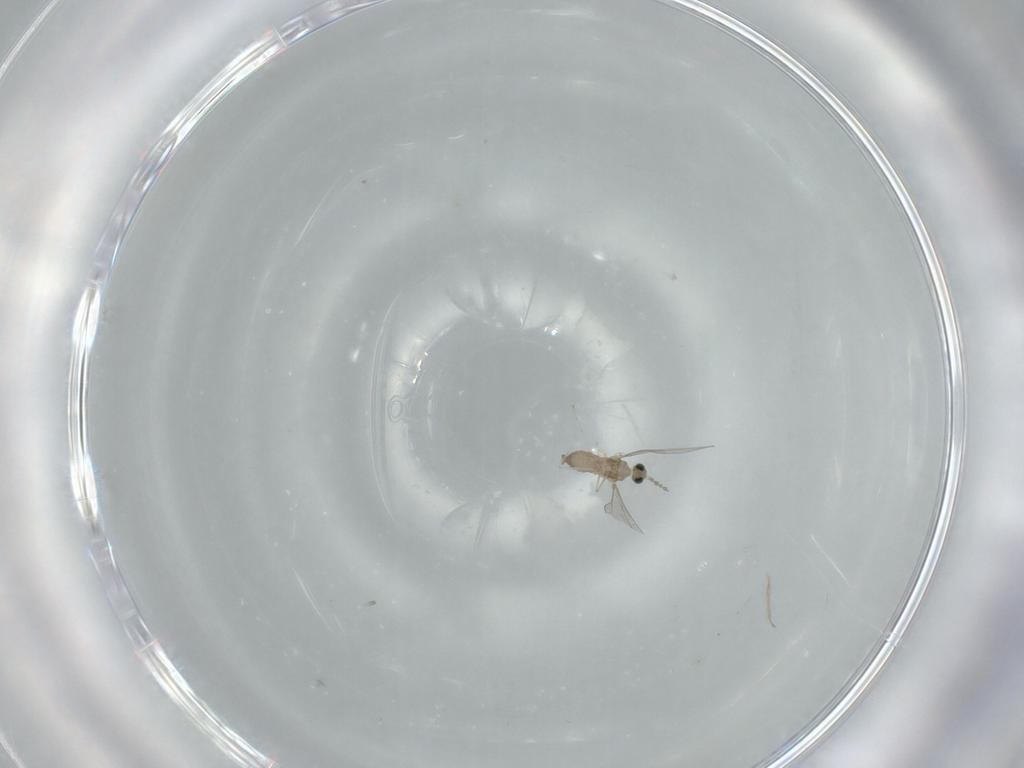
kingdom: Animalia
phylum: Arthropoda
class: Insecta
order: Diptera
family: Cecidomyiidae
